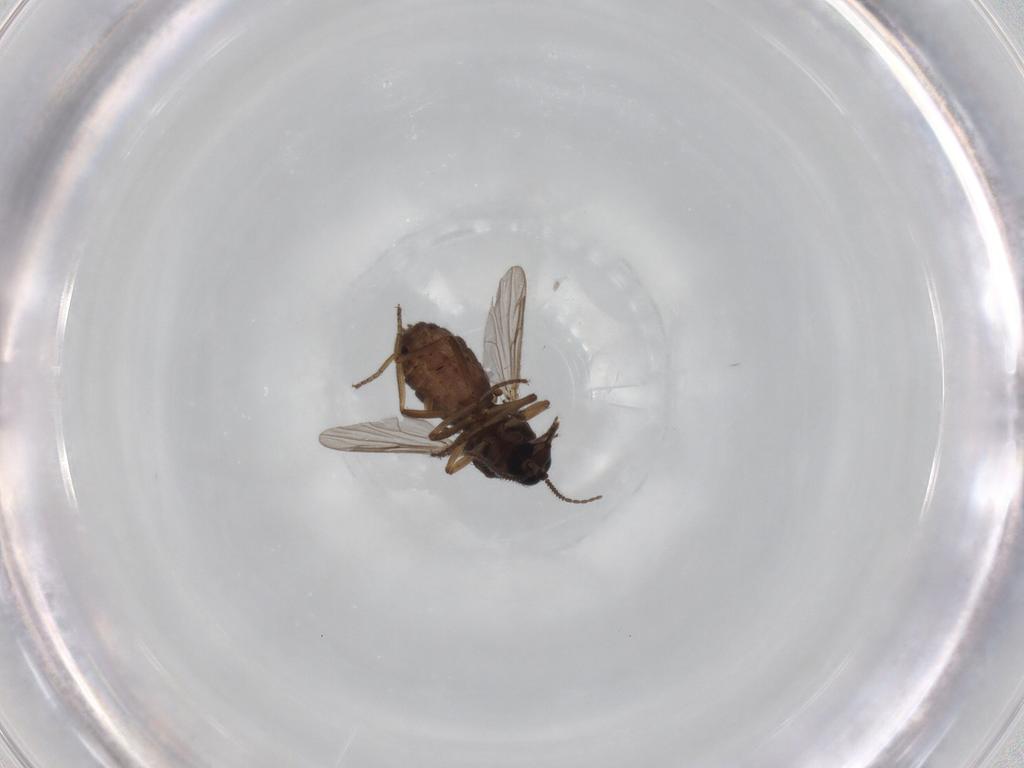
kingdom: Animalia
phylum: Arthropoda
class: Insecta
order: Diptera
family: Ceratopogonidae
